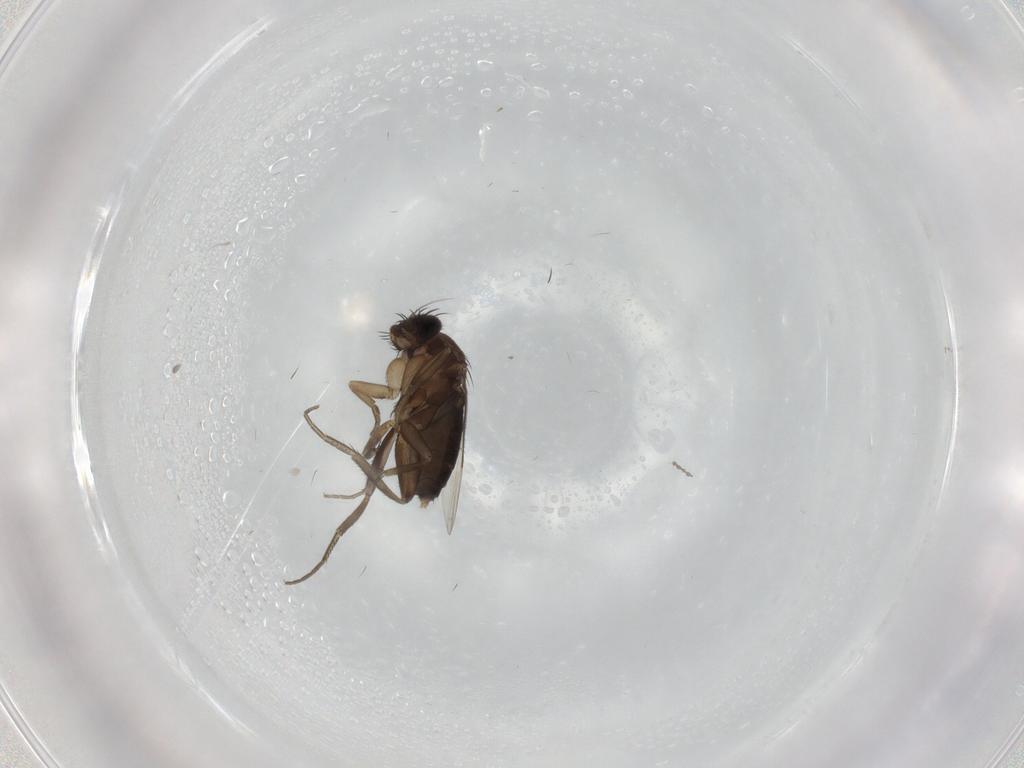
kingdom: Animalia
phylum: Arthropoda
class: Insecta
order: Diptera
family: Phoridae
